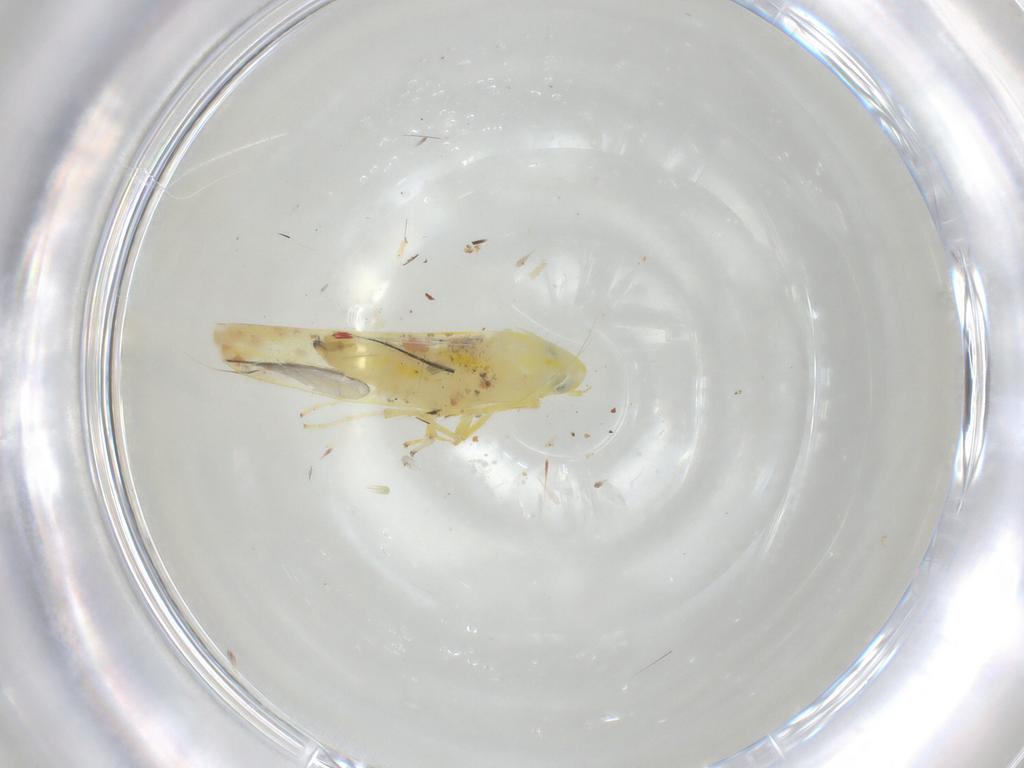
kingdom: Animalia
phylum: Arthropoda
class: Insecta
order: Hemiptera
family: Cicadellidae
